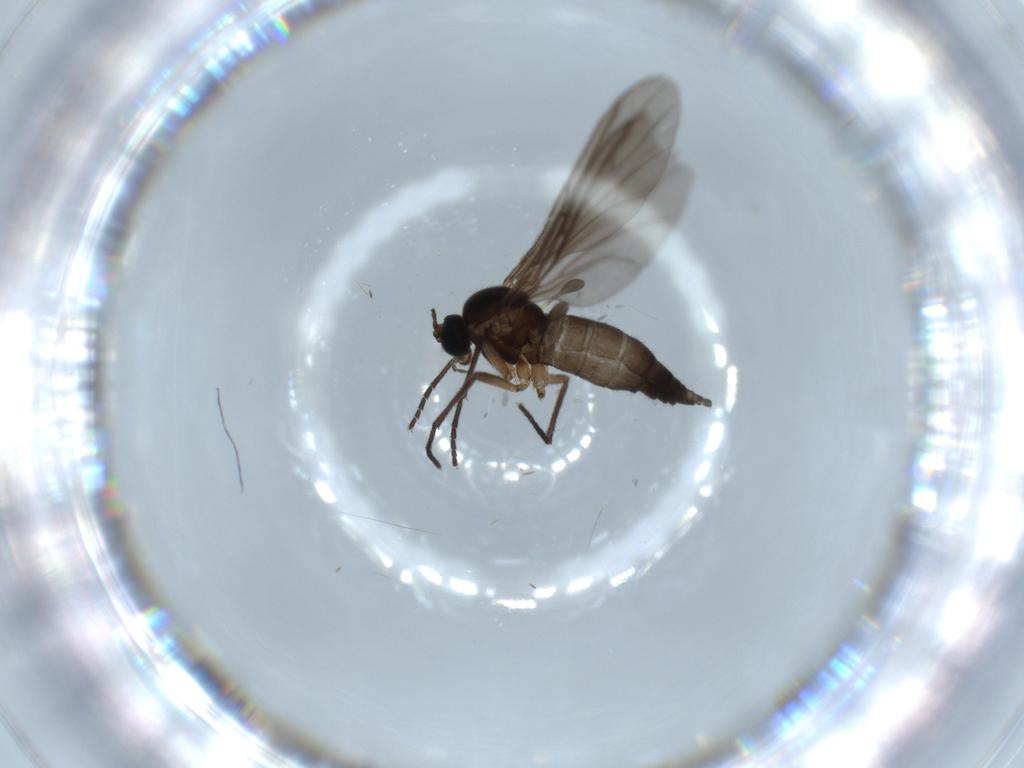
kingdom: Animalia
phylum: Arthropoda
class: Insecta
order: Diptera
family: Sciaridae
